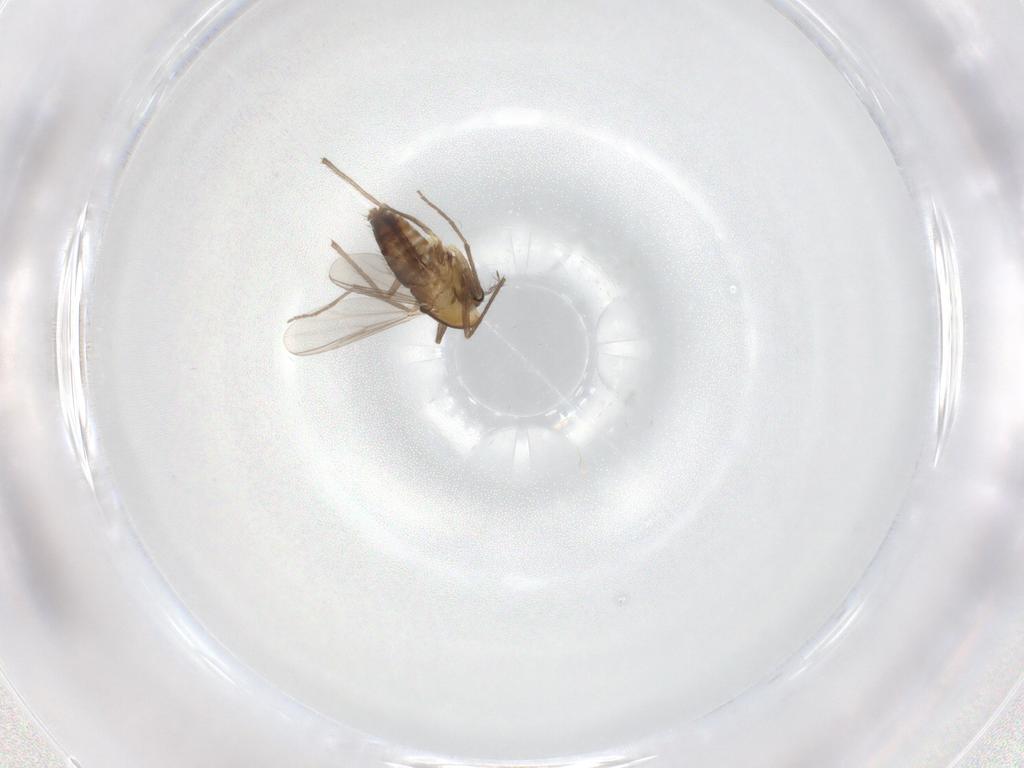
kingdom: Animalia
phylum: Arthropoda
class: Insecta
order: Diptera
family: Chironomidae
